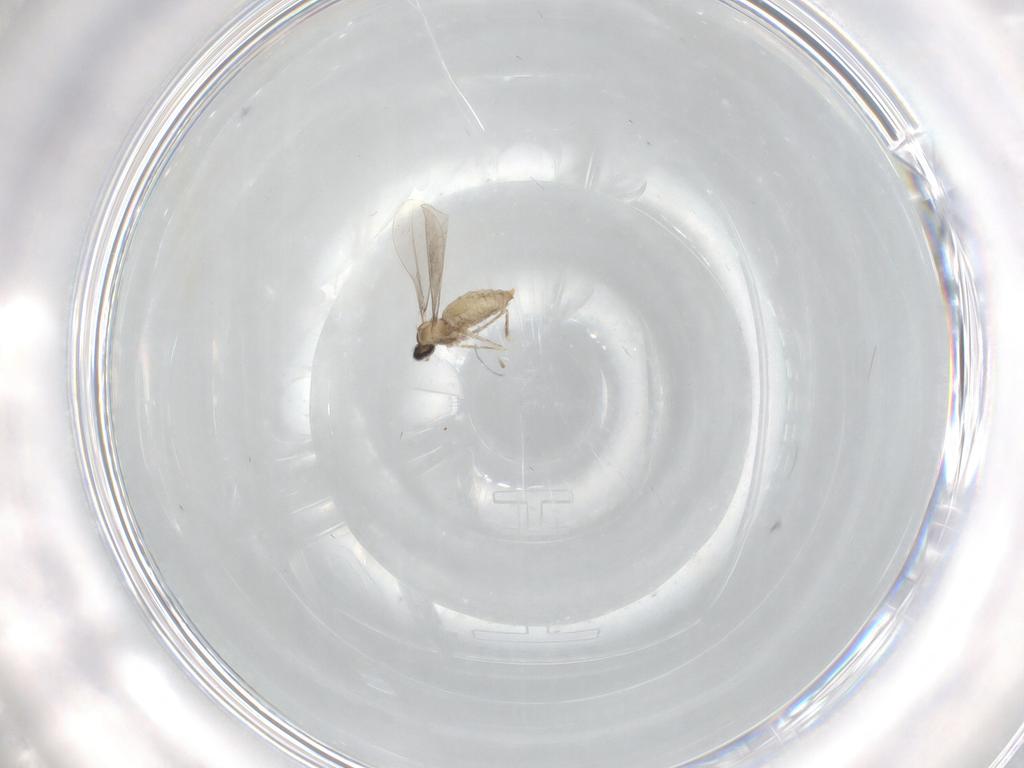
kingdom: Animalia
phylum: Arthropoda
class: Insecta
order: Diptera
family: Cecidomyiidae
